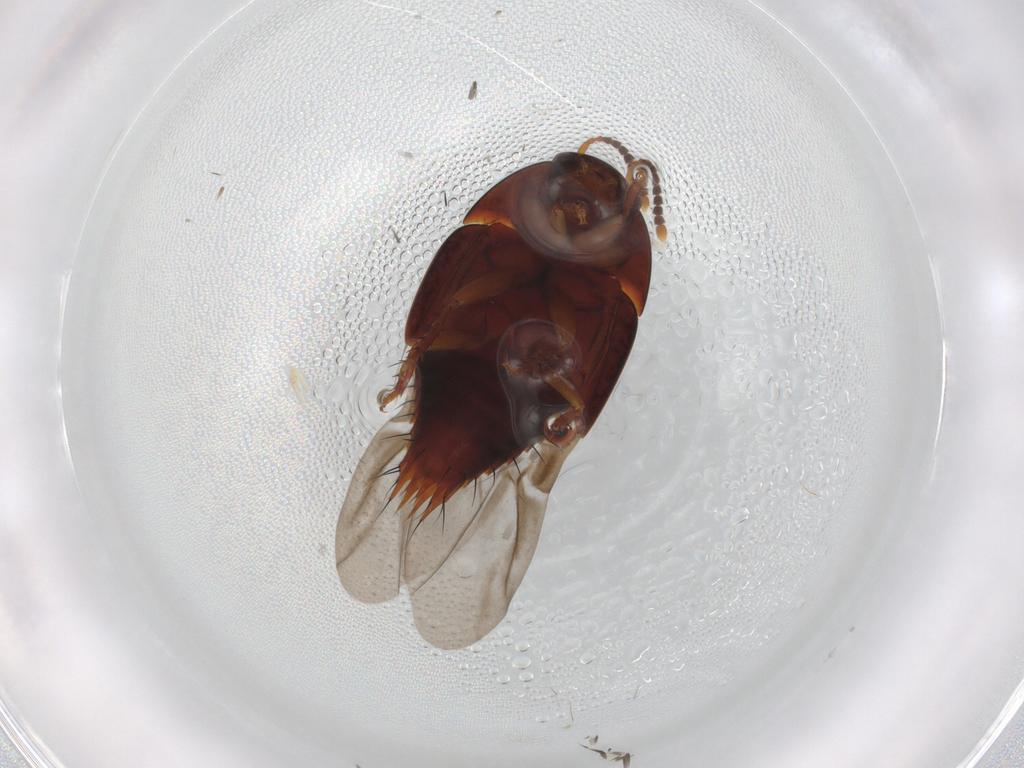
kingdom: Animalia
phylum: Arthropoda
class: Insecta
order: Coleoptera
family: Staphylinidae
